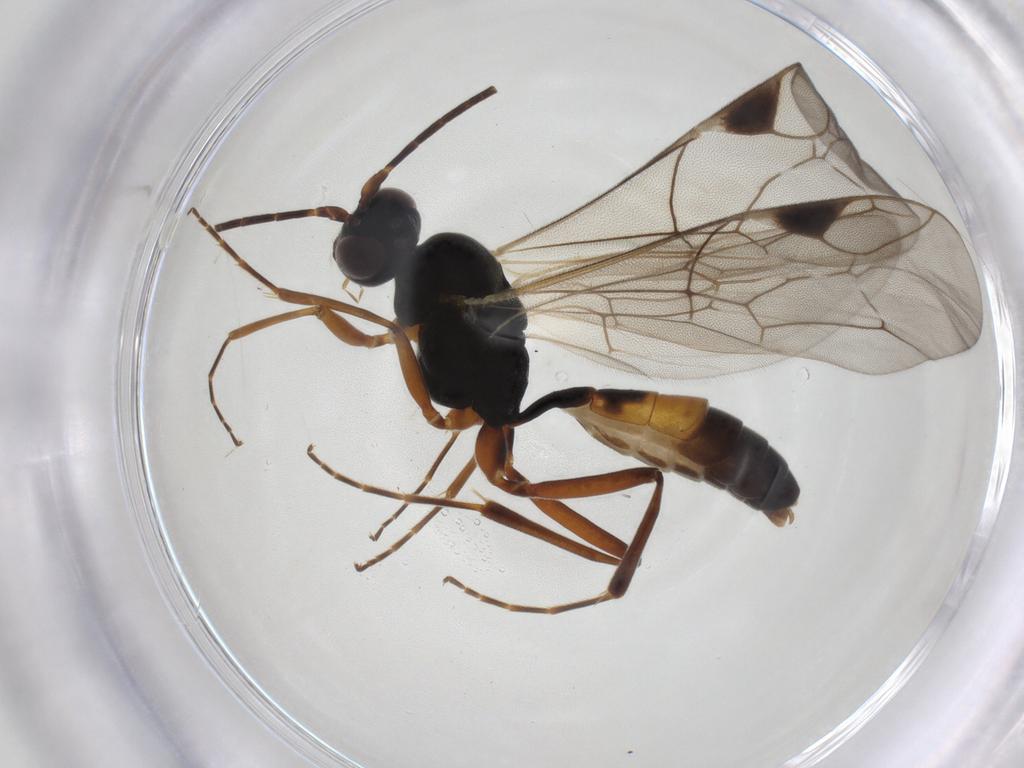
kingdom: Animalia
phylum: Arthropoda
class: Insecta
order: Hymenoptera
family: Ichneumonidae
